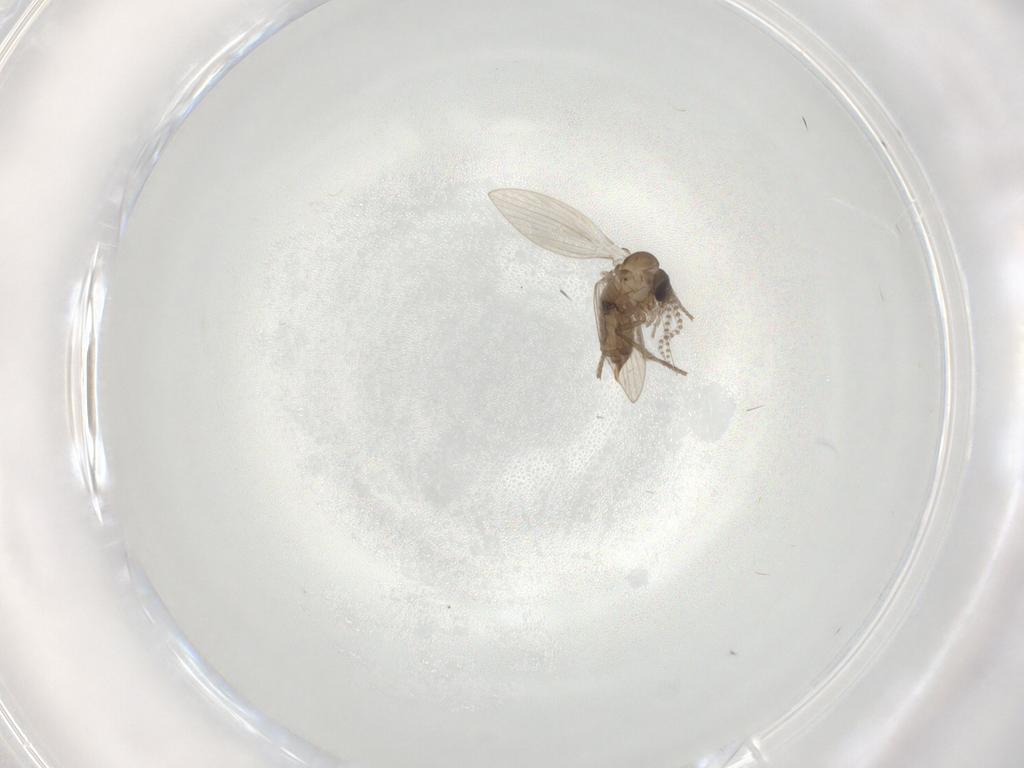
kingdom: Animalia
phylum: Arthropoda
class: Insecta
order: Diptera
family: Psychodidae
